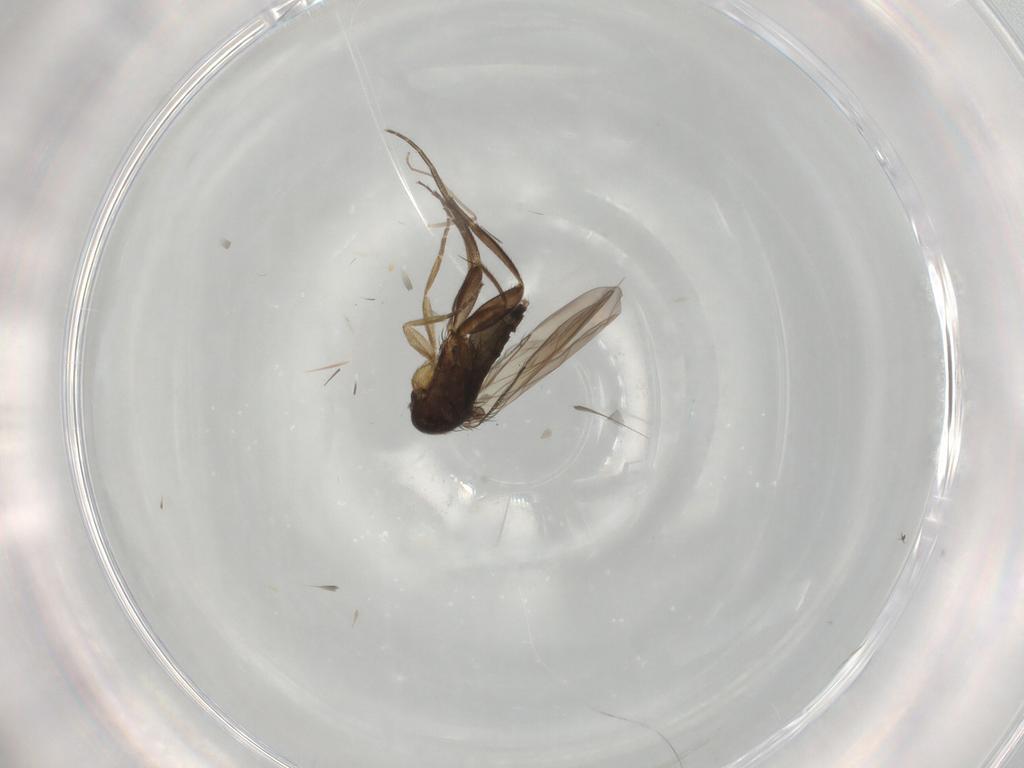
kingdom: Animalia
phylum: Arthropoda
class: Insecta
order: Diptera
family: Phoridae
